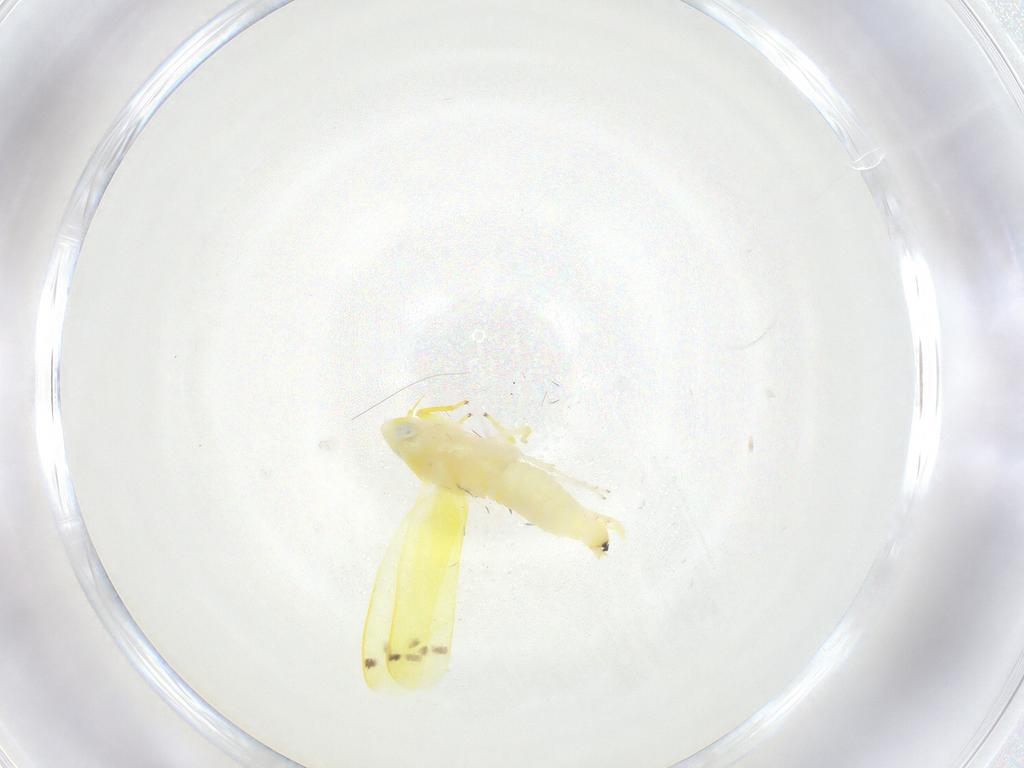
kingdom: Animalia
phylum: Arthropoda
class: Insecta
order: Hemiptera
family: Cicadellidae
